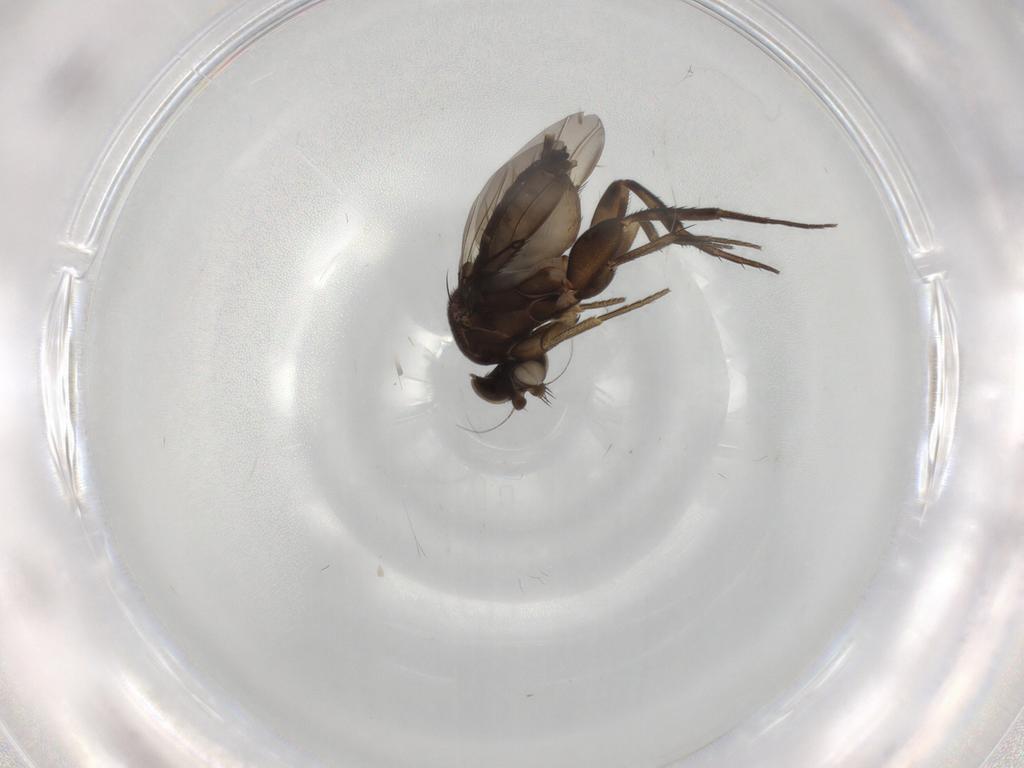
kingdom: Animalia
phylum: Arthropoda
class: Insecta
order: Diptera
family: Phoridae
